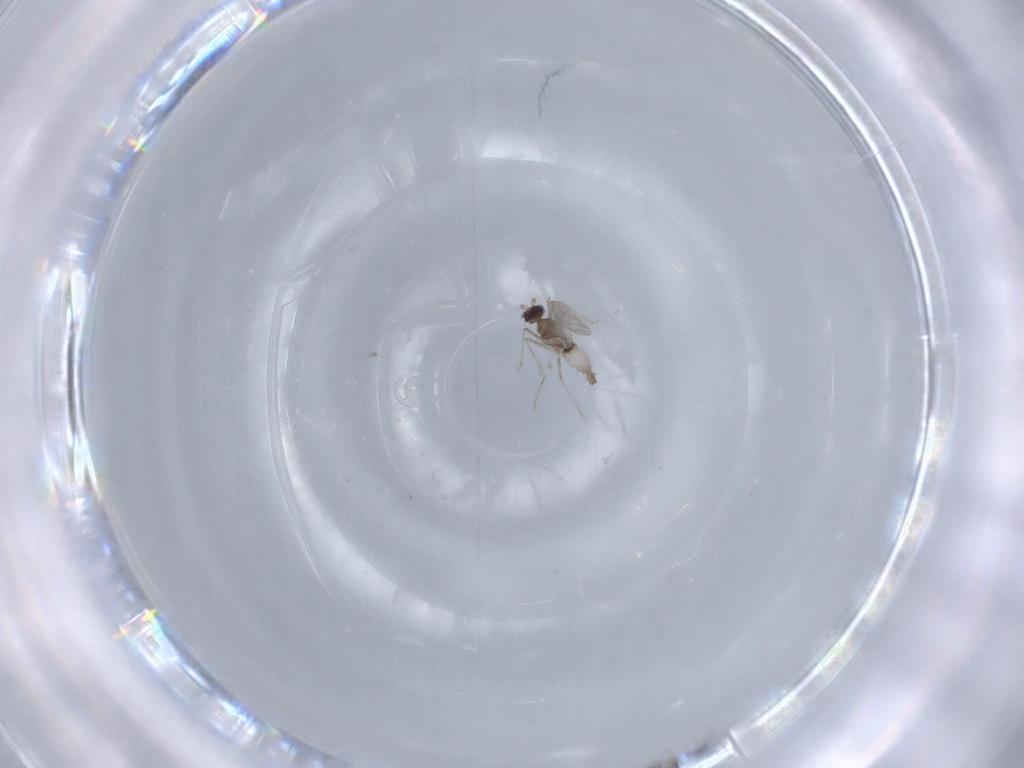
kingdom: Animalia
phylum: Arthropoda
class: Insecta
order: Diptera
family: Cecidomyiidae
